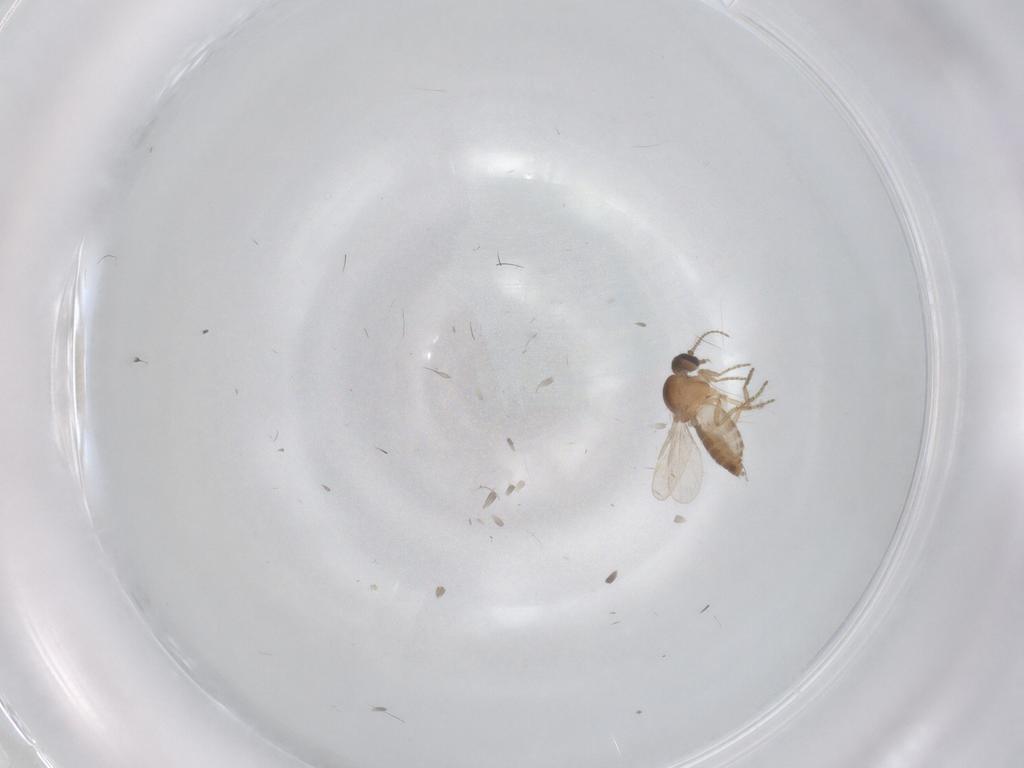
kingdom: Animalia
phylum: Arthropoda
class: Insecta
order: Diptera
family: Ceratopogonidae
